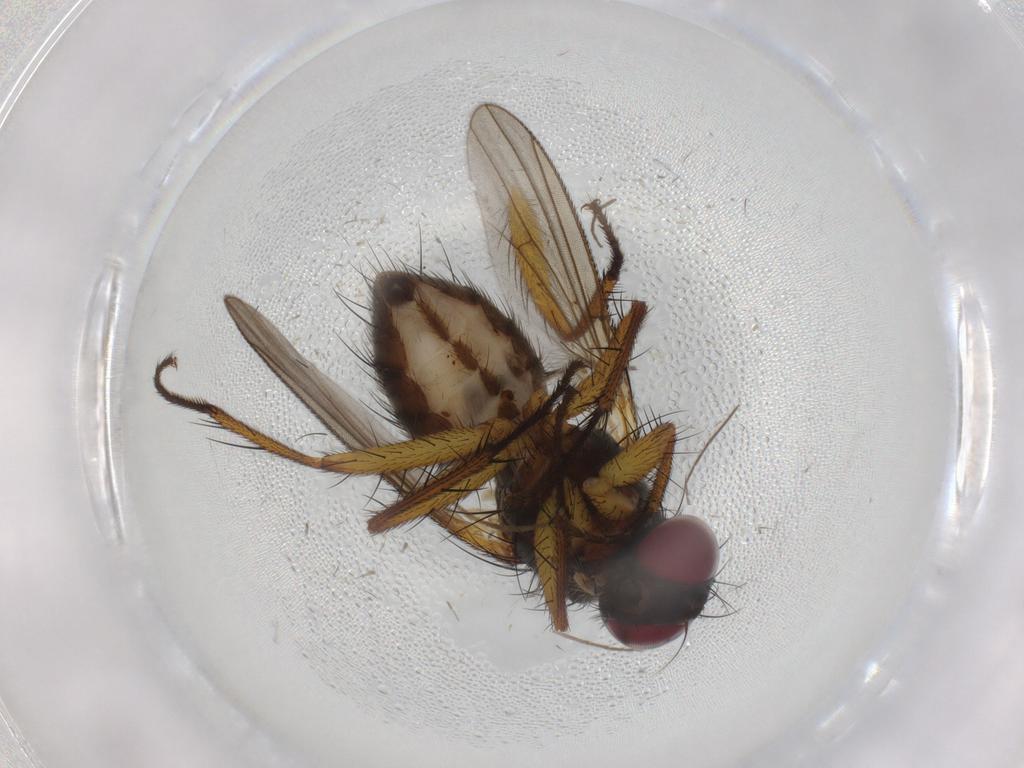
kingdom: Animalia
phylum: Arthropoda
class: Insecta
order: Diptera
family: Muscidae
